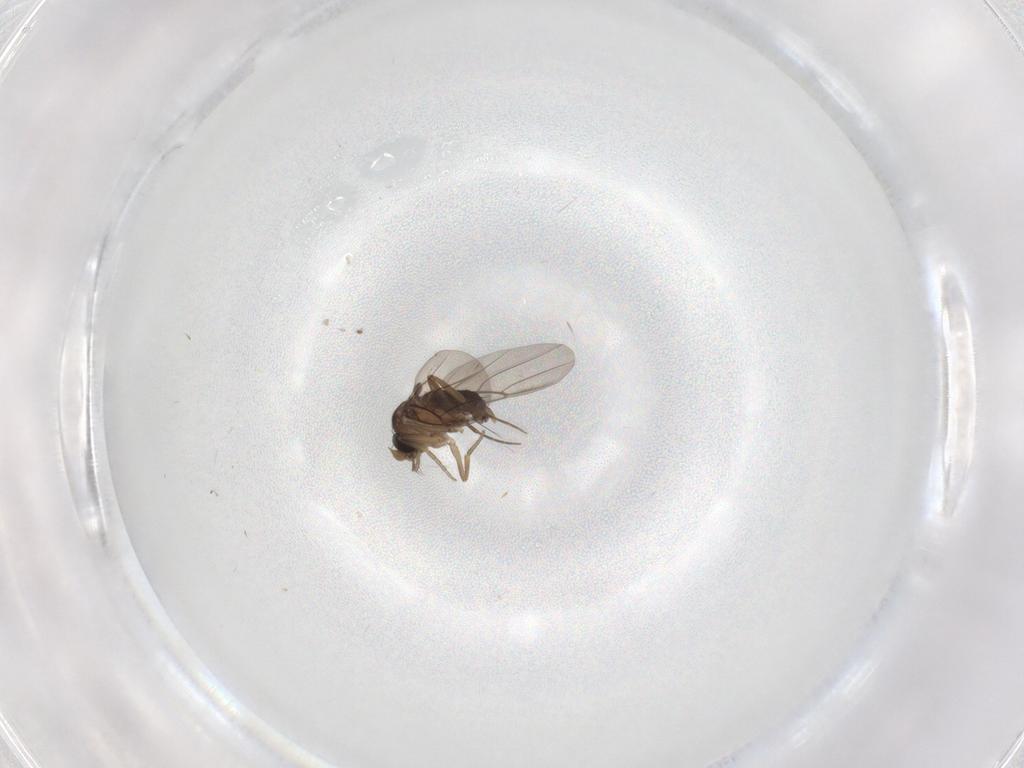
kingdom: Animalia
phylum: Arthropoda
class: Insecta
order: Diptera
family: Phoridae
